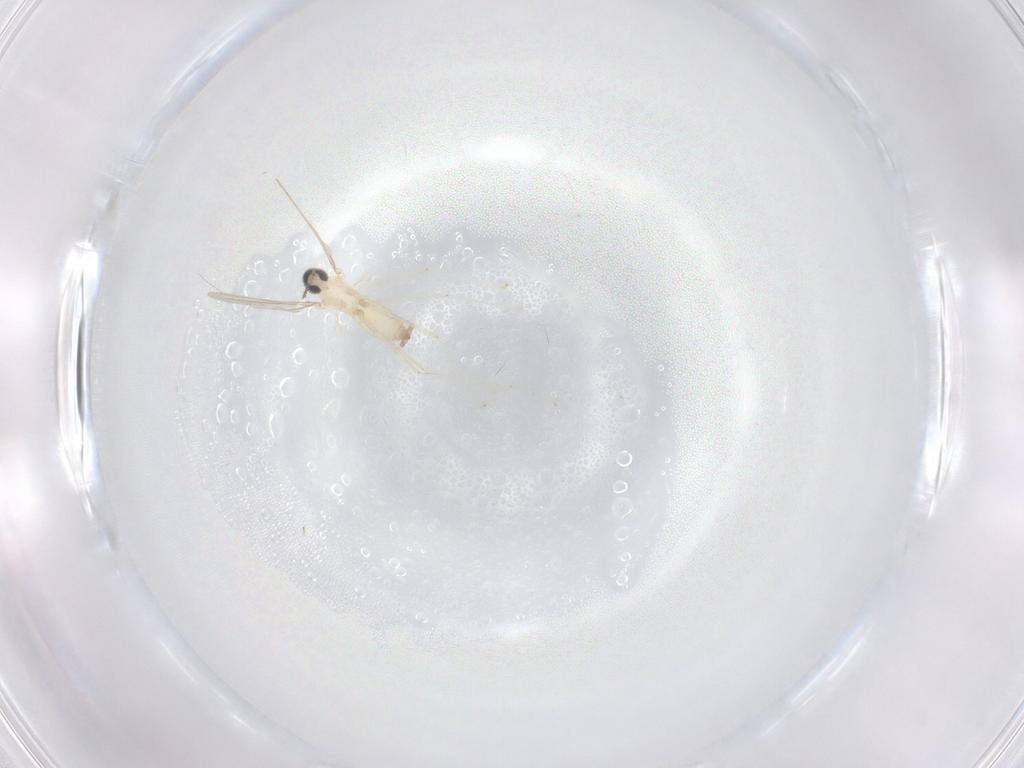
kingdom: Animalia
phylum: Arthropoda
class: Insecta
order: Diptera
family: Cecidomyiidae
